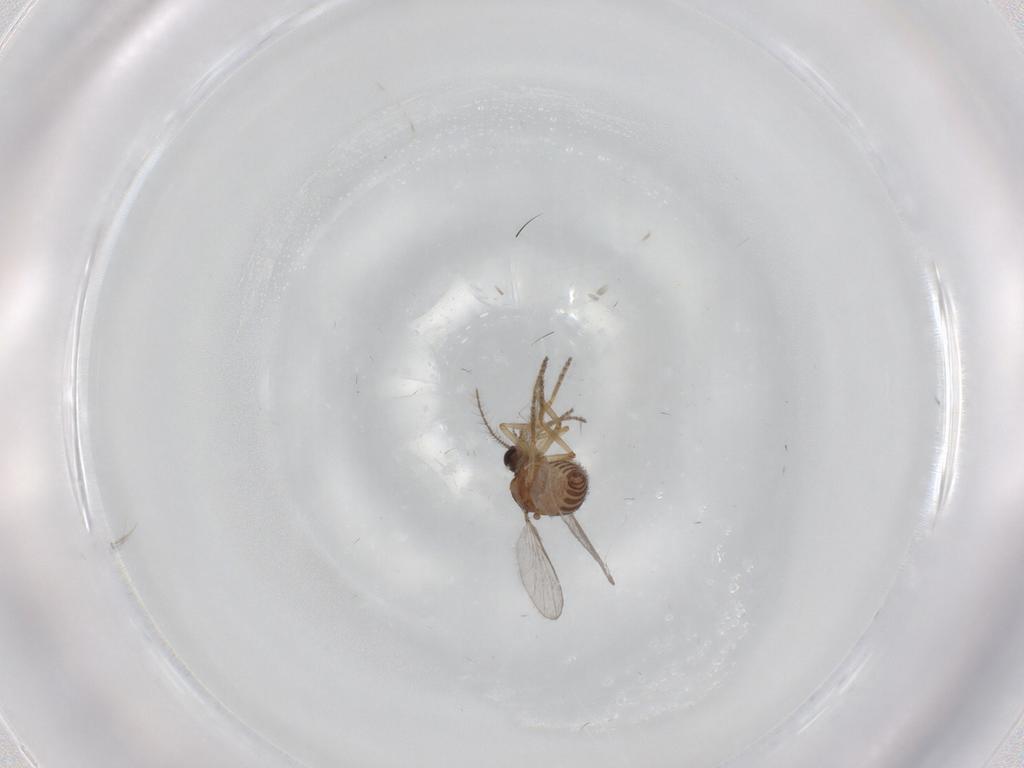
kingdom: Animalia
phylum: Arthropoda
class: Insecta
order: Diptera
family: Ceratopogonidae
